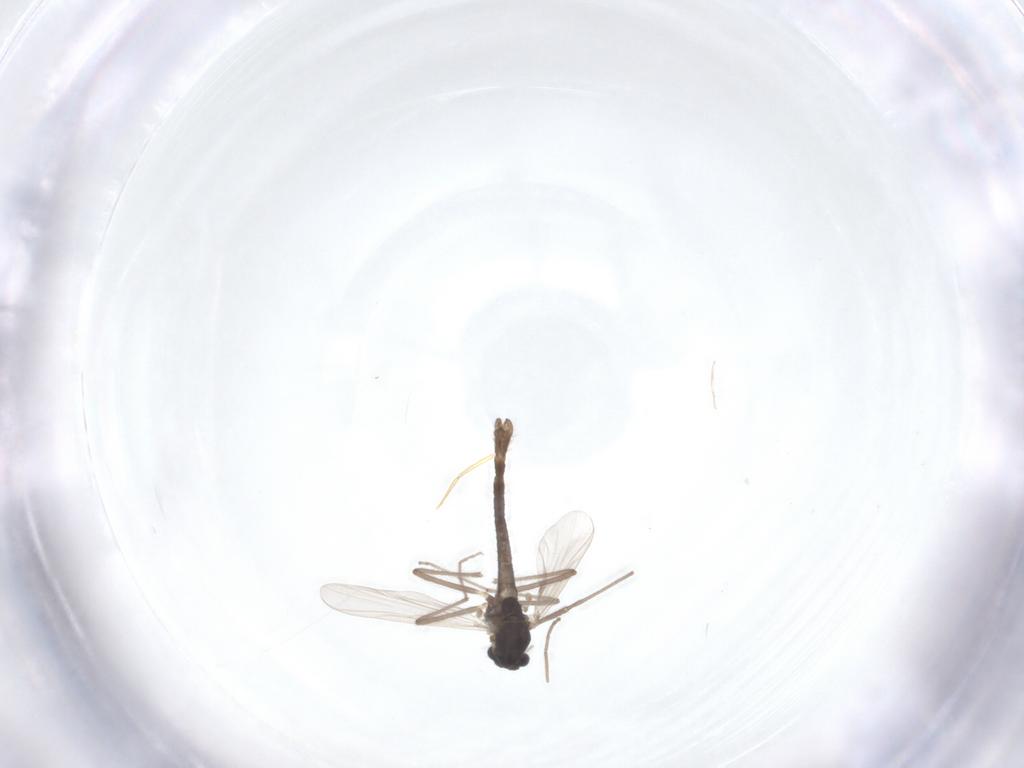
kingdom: Animalia
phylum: Arthropoda
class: Insecta
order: Diptera
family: Chironomidae
